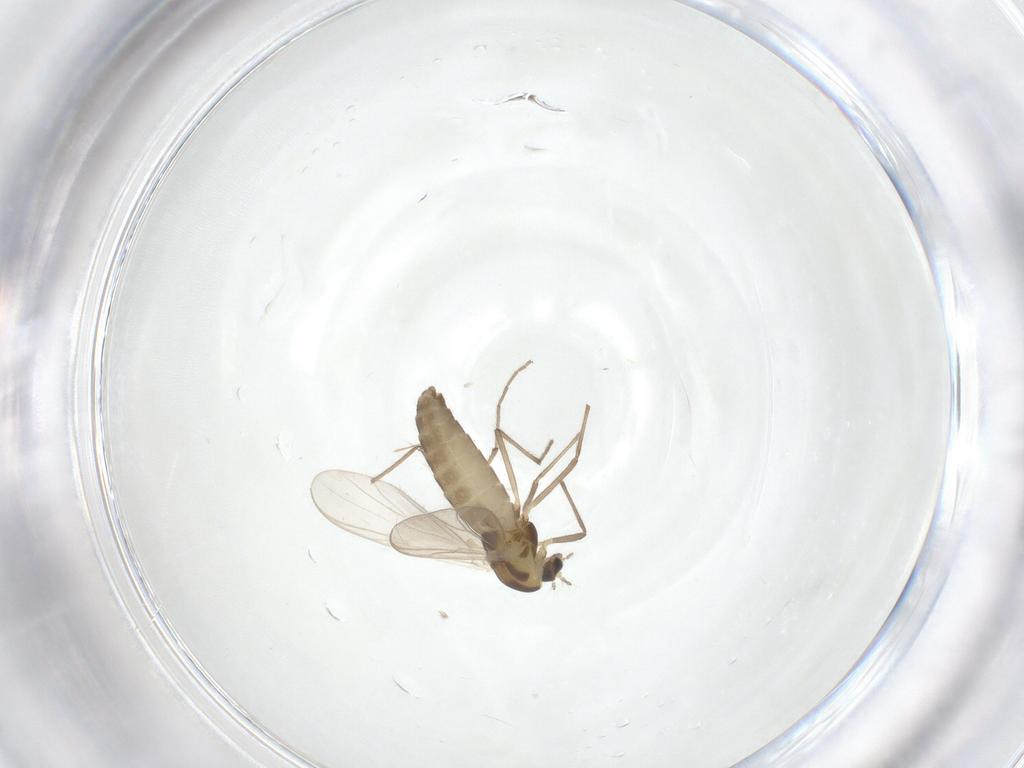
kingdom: Animalia
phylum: Arthropoda
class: Insecta
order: Diptera
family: Chironomidae
